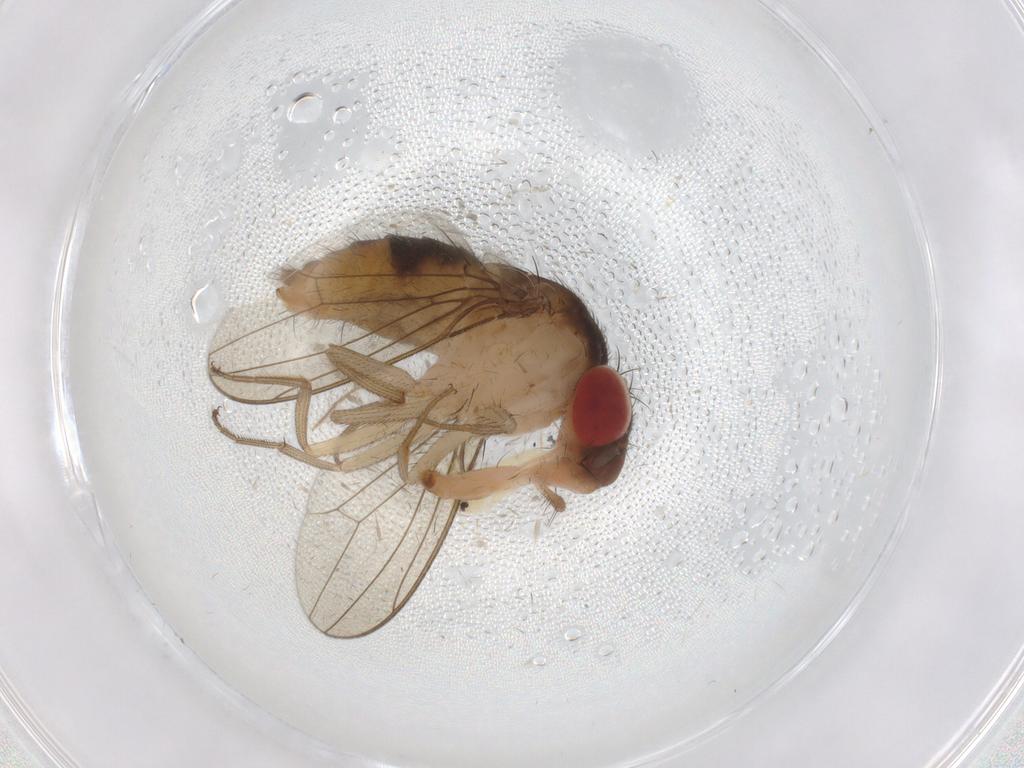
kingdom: Animalia
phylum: Arthropoda
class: Insecta
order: Diptera
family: Drosophilidae
